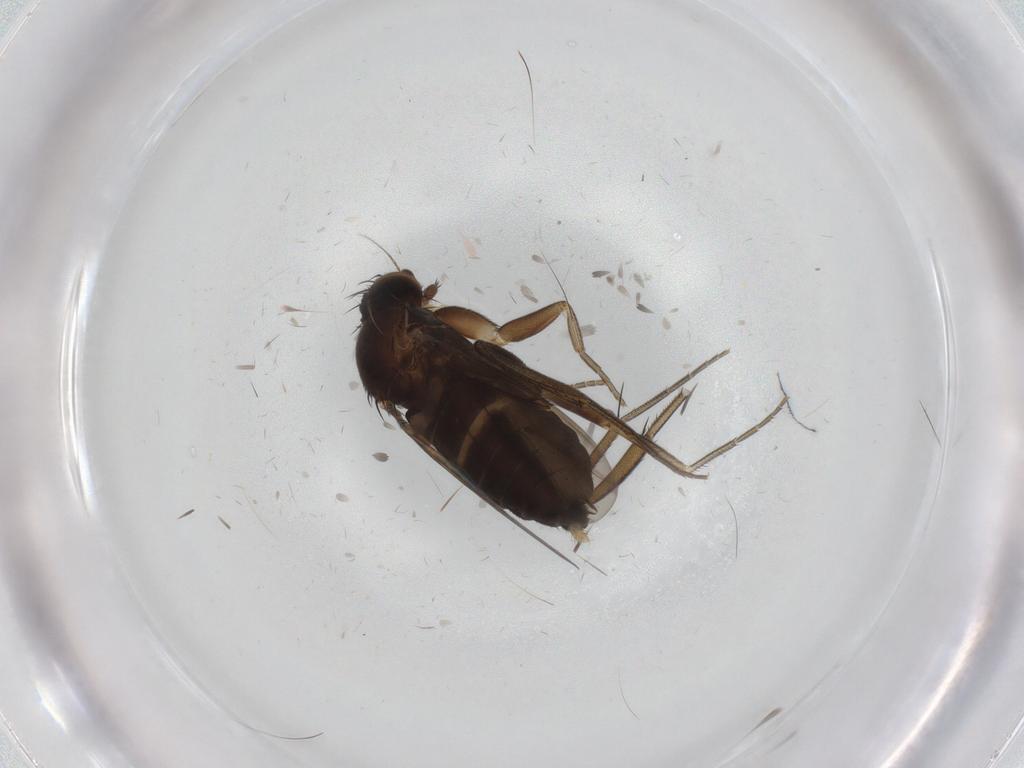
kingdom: Animalia
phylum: Arthropoda
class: Insecta
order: Diptera
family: Phoridae
